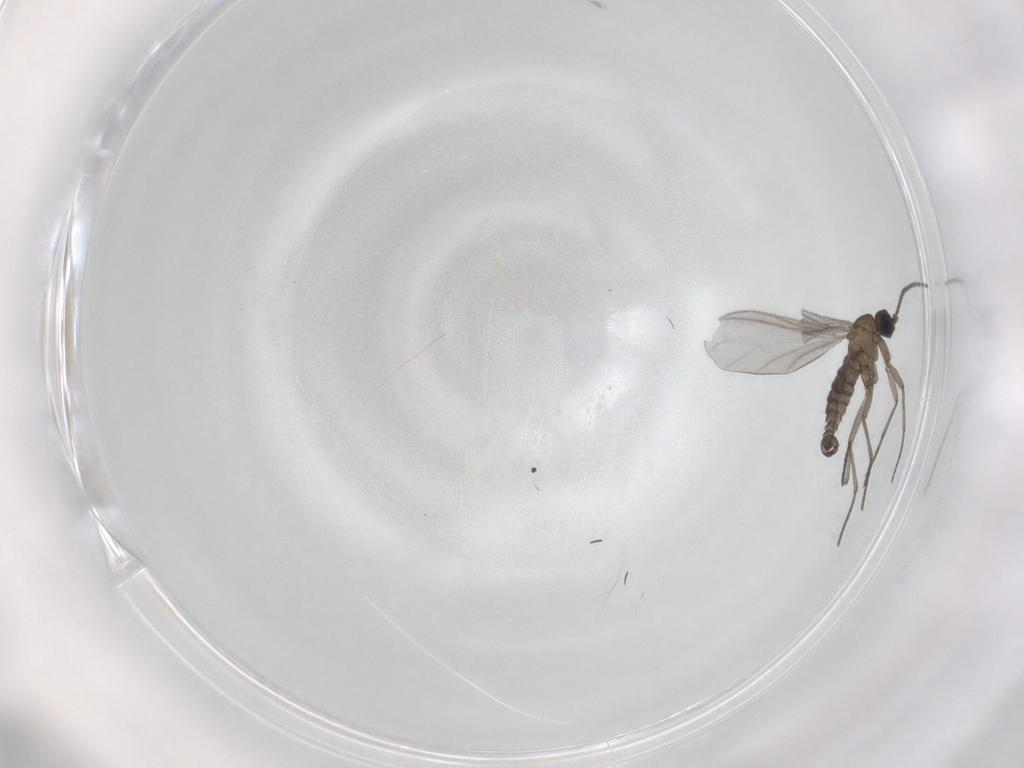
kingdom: Animalia
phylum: Arthropoda
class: Insecta
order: Diptera
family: Sciaridae
